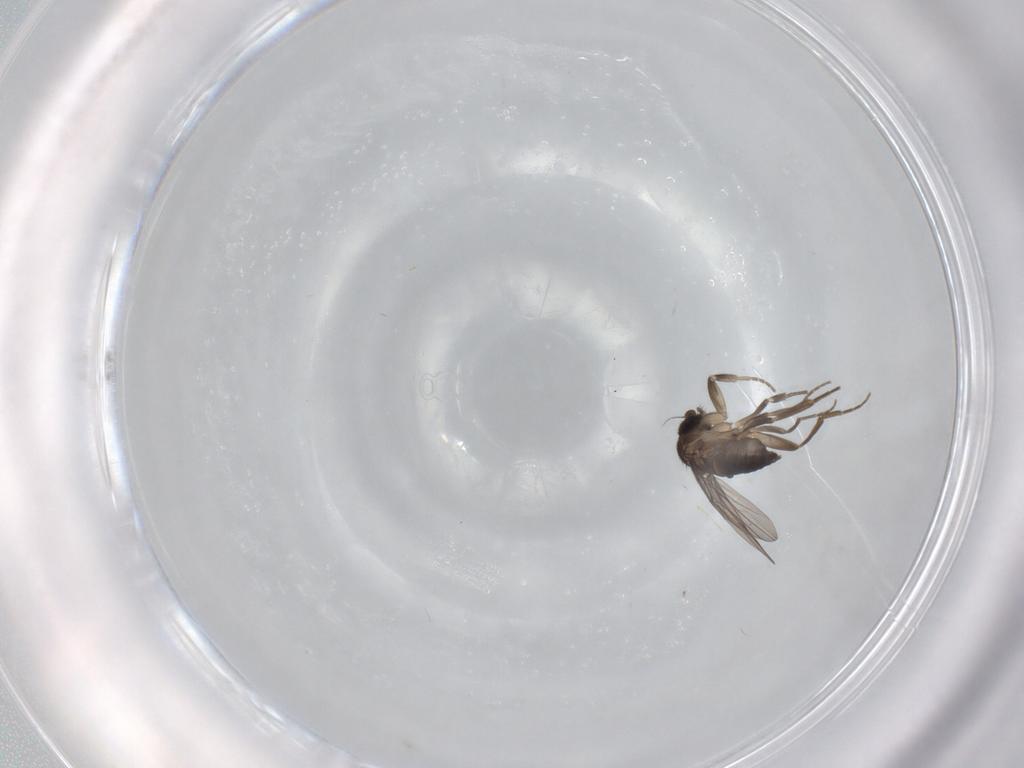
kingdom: Animalia
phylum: Arthropoda
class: Insecta
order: Diptera
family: Phoridae
